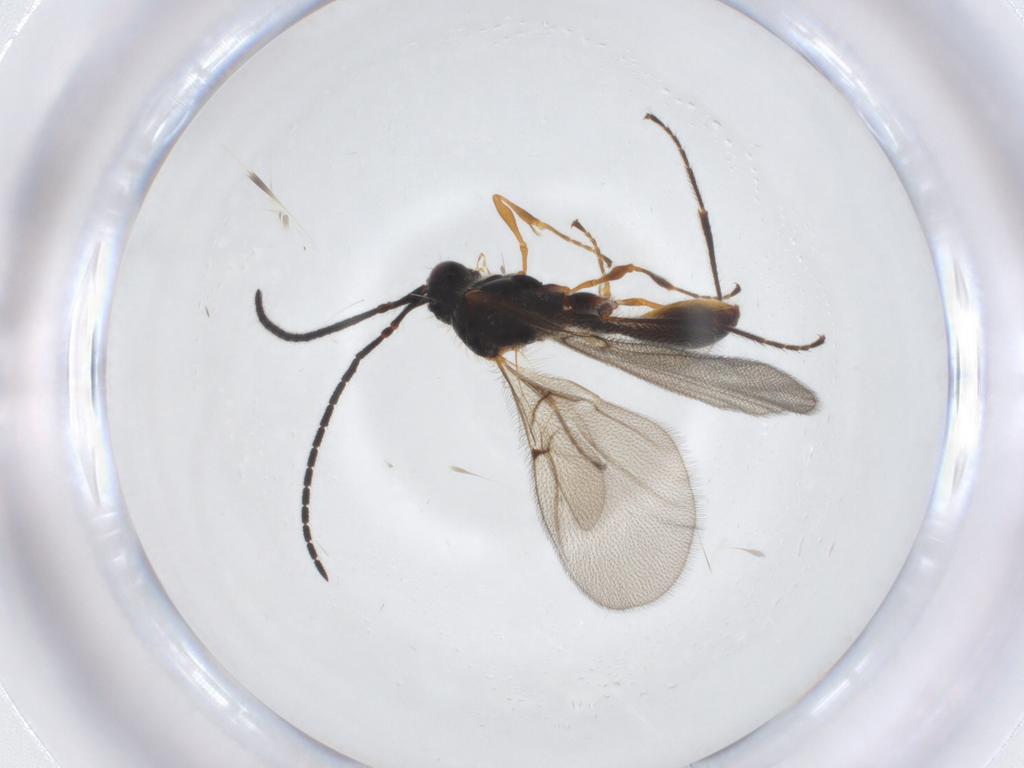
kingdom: Animalia
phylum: Arthropoda
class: Insecta
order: Hymenoptera
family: Diapriidae
